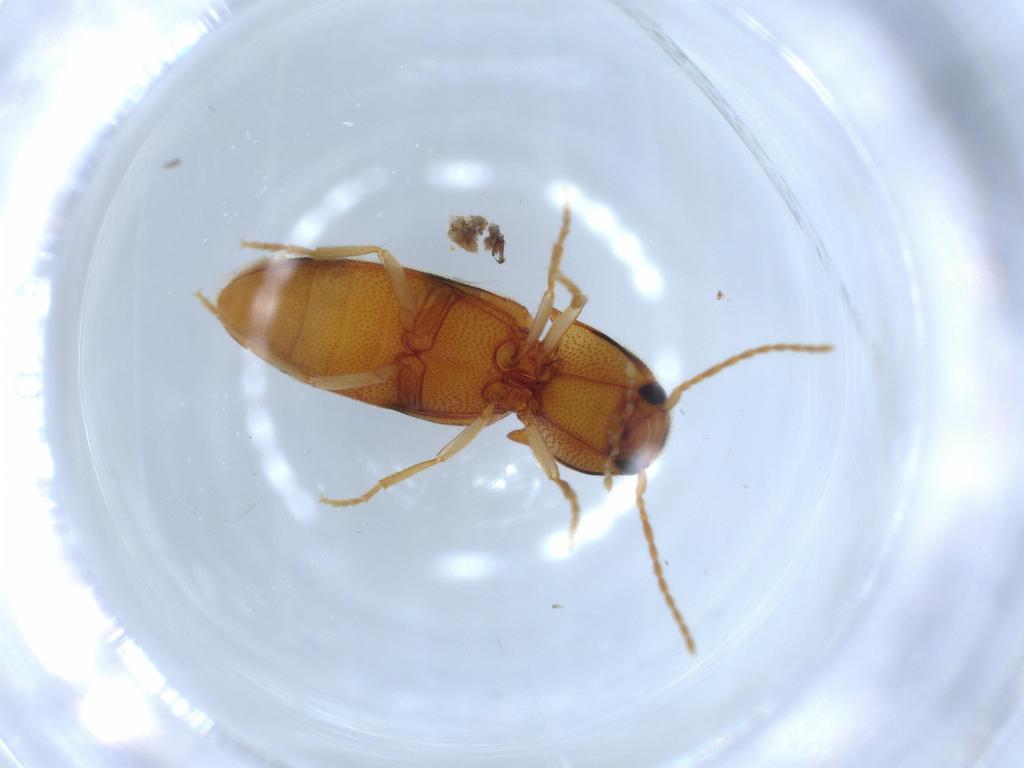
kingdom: Animalia
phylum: Arthropoda
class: Insecta
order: Coleoptera
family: Elateridae
